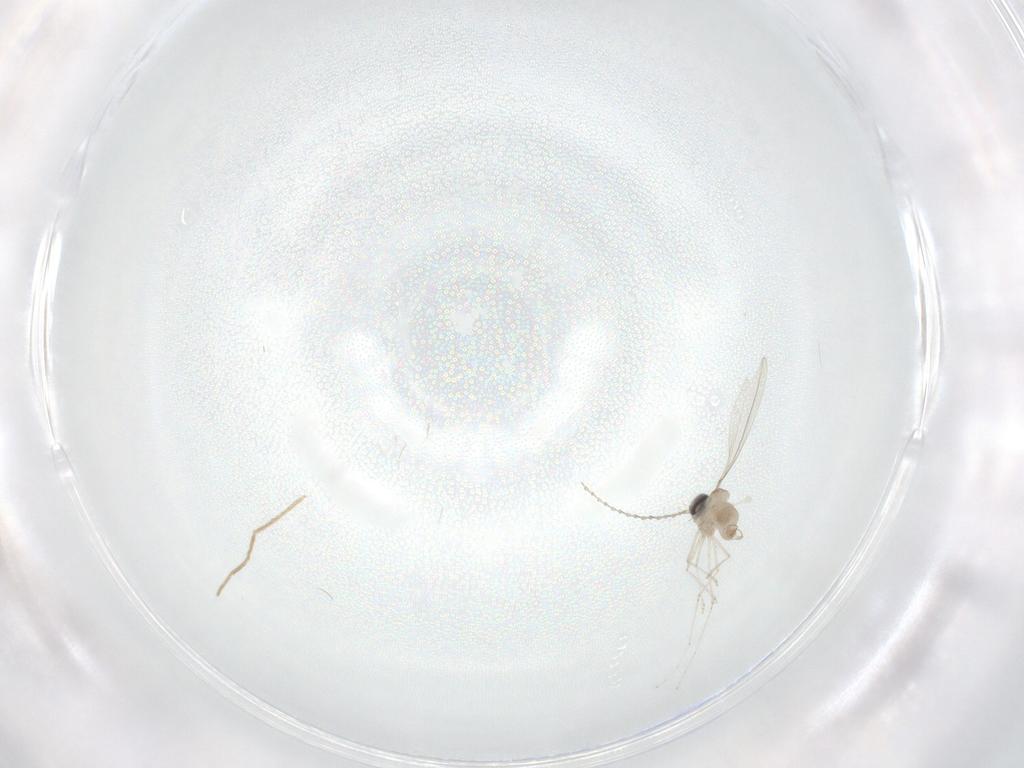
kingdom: Animalia
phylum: Arthropoda
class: Insecta
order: Diptera
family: Cecidomyiidae
